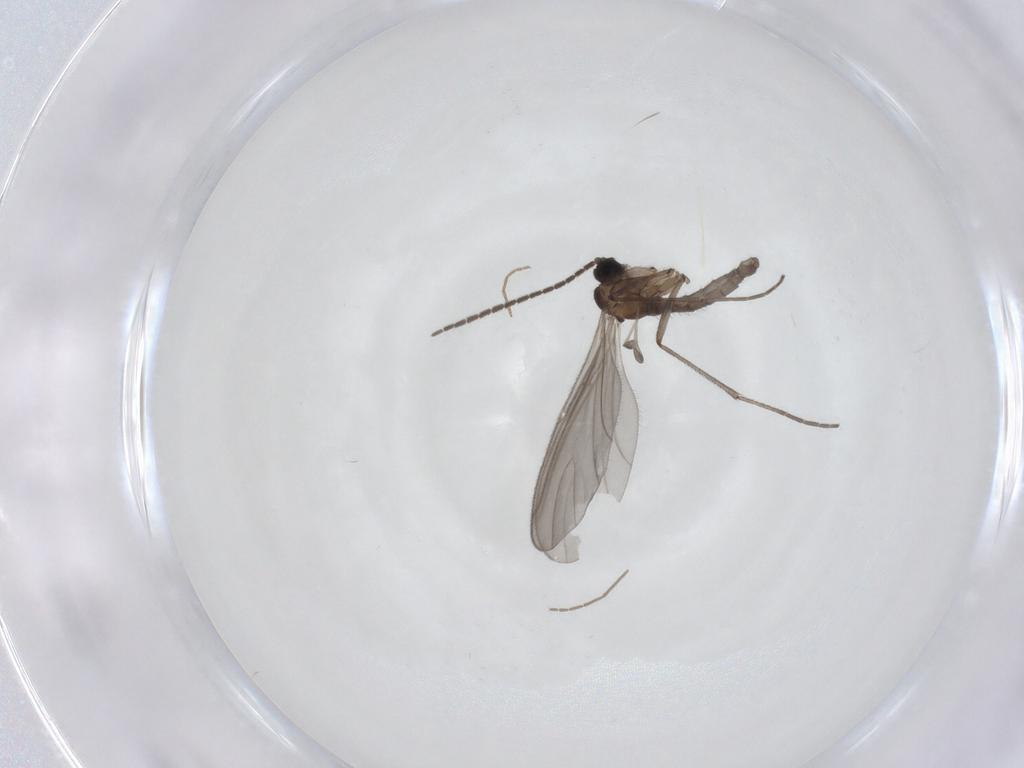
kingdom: Animalia
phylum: Arthropoda
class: Insecta
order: Diptera
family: Sciaridae
